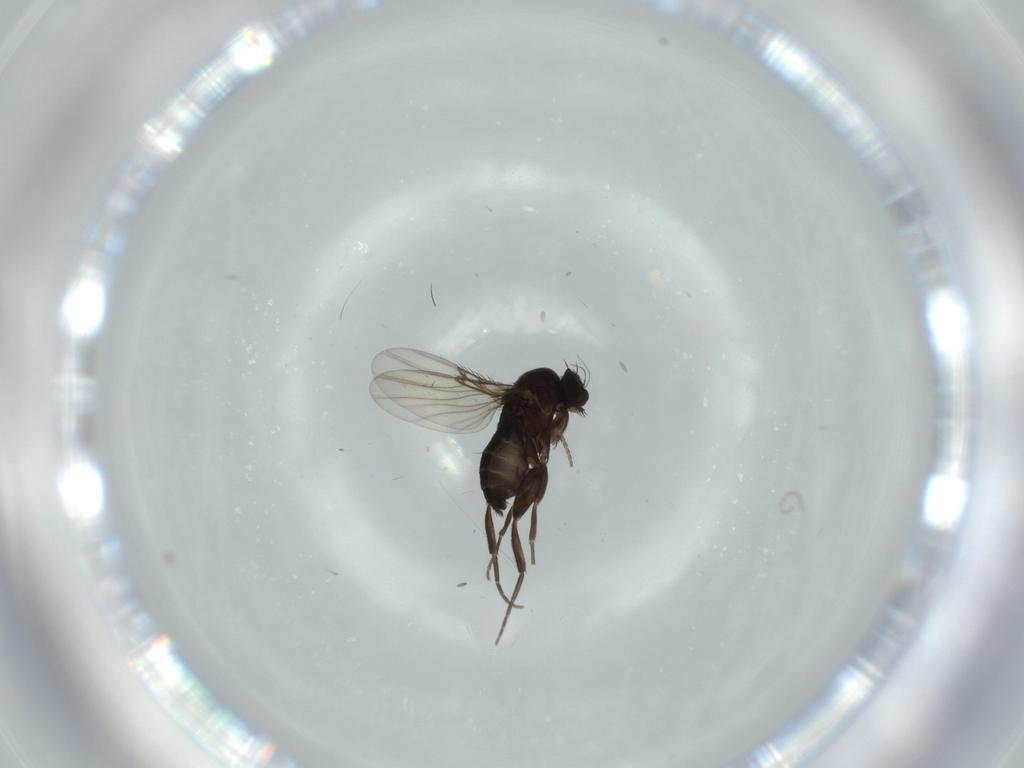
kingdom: Animalia
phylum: Arthropoda
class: Insecta
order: Diptera
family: Phoridae
